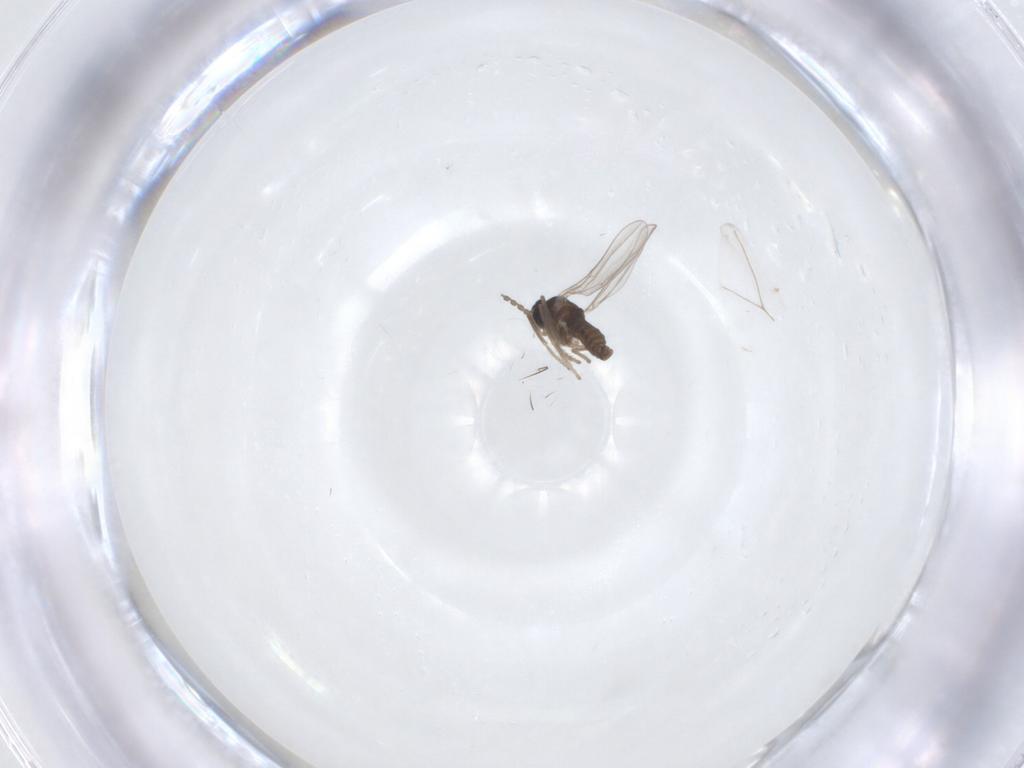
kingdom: Animalia
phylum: Arthropoda
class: Insecta
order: Diptera
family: Cecidomyiidae
